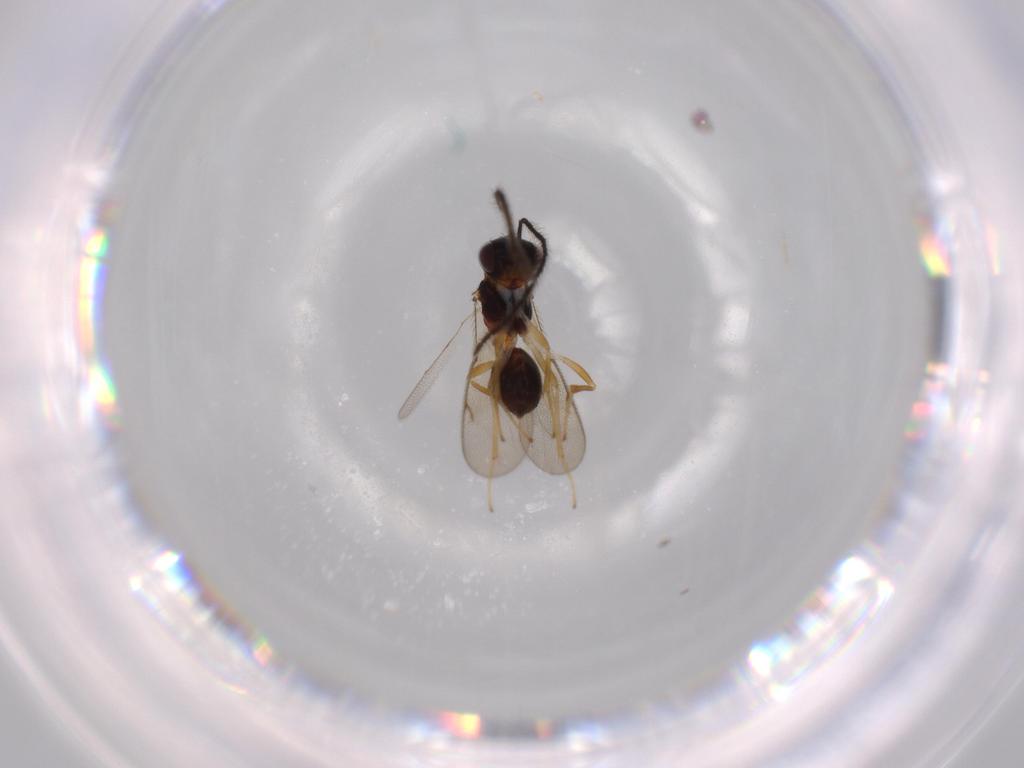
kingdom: Animalia
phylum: Arthropoda
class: Insecta
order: Hymenoptera
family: Diparidae
